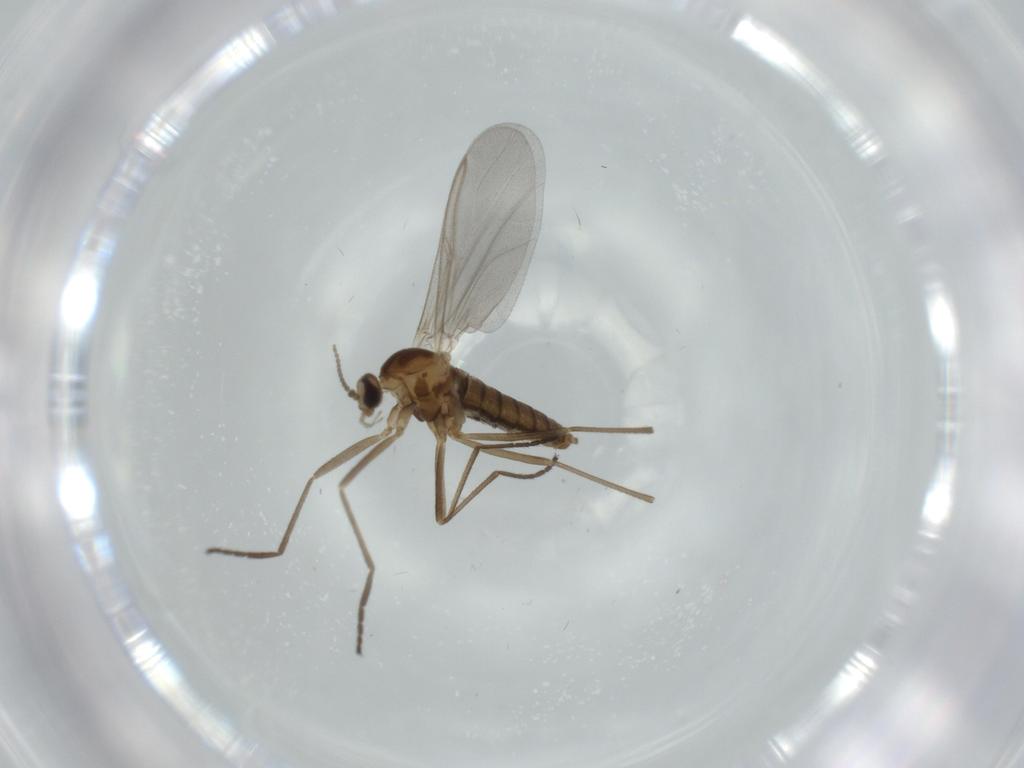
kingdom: Animalia
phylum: Arthropoda
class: Insecta
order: Diptera
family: Cecidomyiidae
